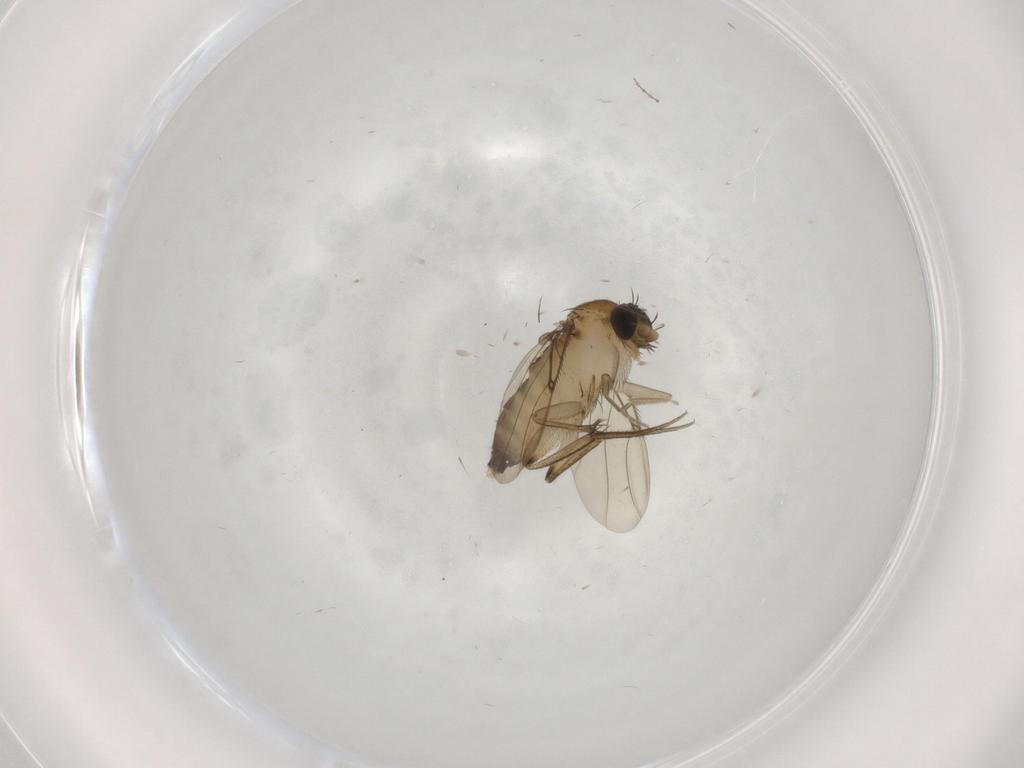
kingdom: Animalia
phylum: Arthropoda
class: Insecta
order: Diptera
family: Phoridae
